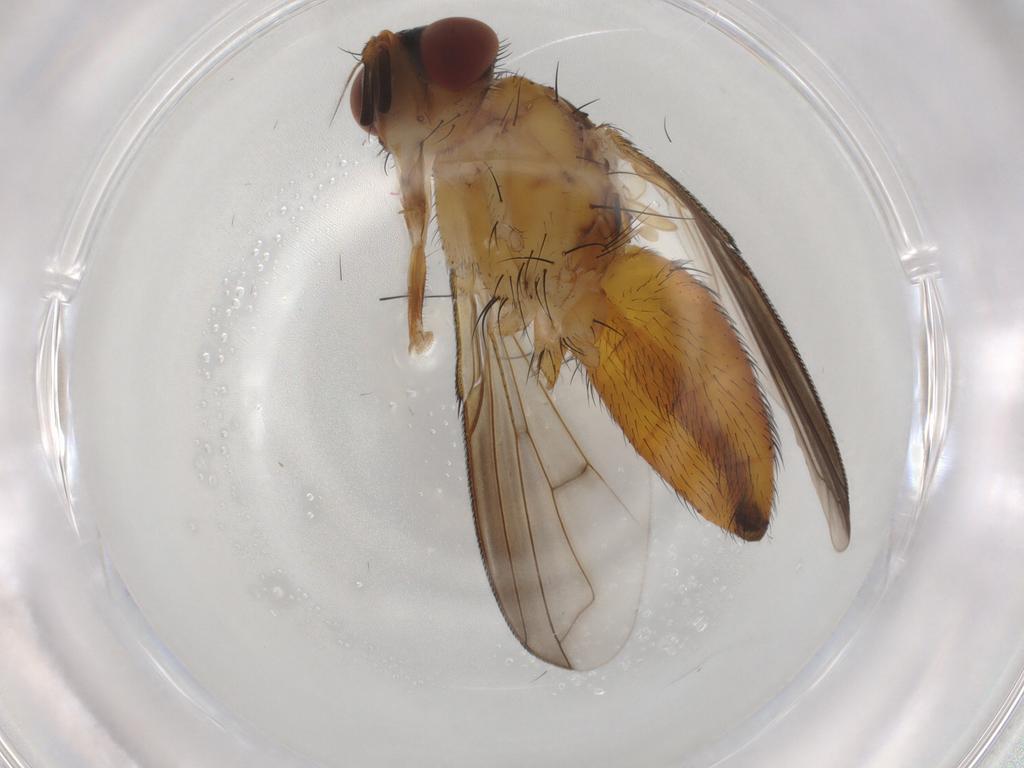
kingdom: Animalia
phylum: Arthropoda
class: Insecta
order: Diptera
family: Tachinidae
